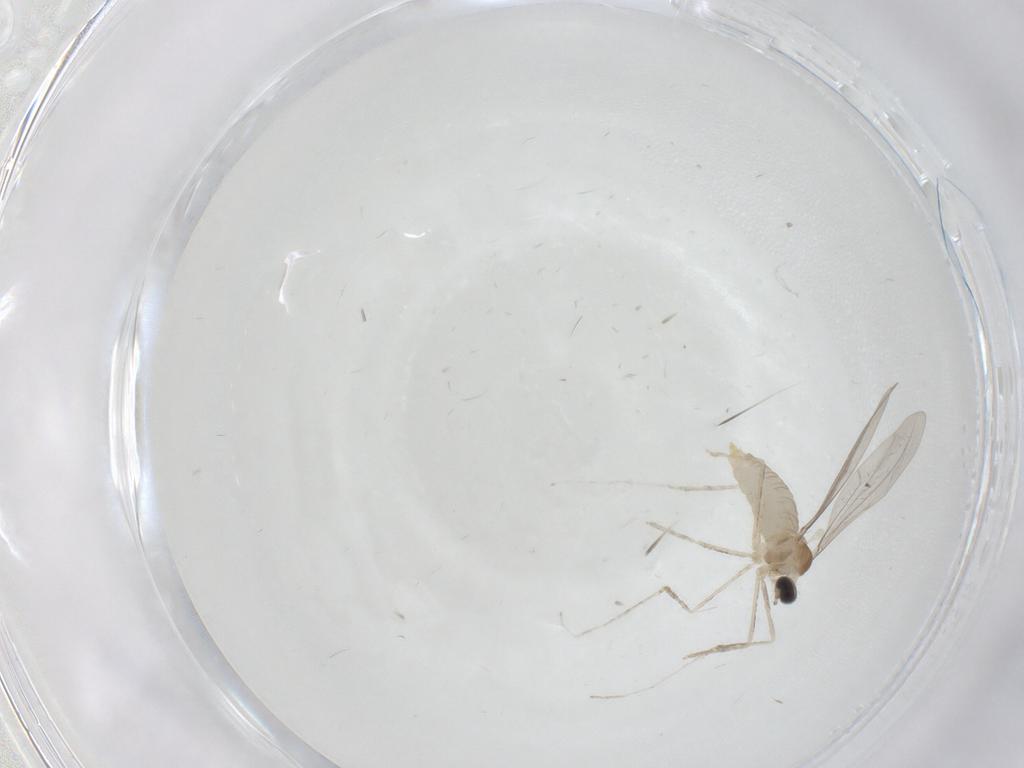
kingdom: Animalia
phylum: Arthropoda
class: Insecta
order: Diptera
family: Cecidomyiidae
